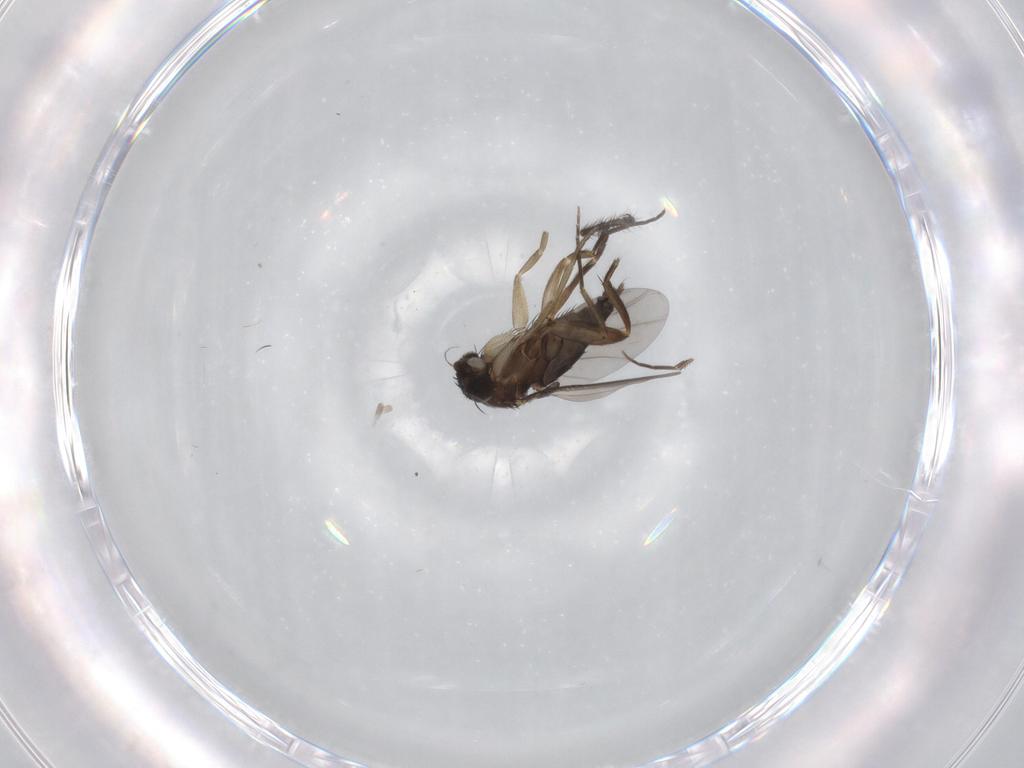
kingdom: Animalia
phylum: Arthropoda
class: Insecta
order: Diptera
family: Phoridae
